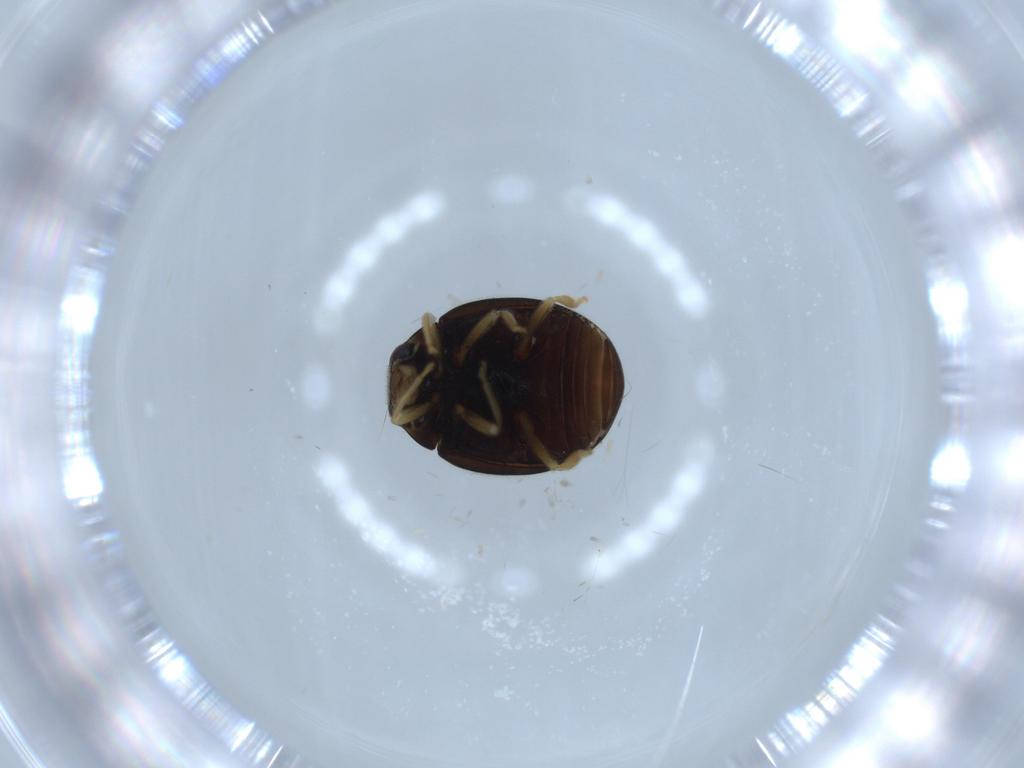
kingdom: Animalia
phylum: Arthropoda
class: Insecta
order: Coleoptera
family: Coccinellidae
